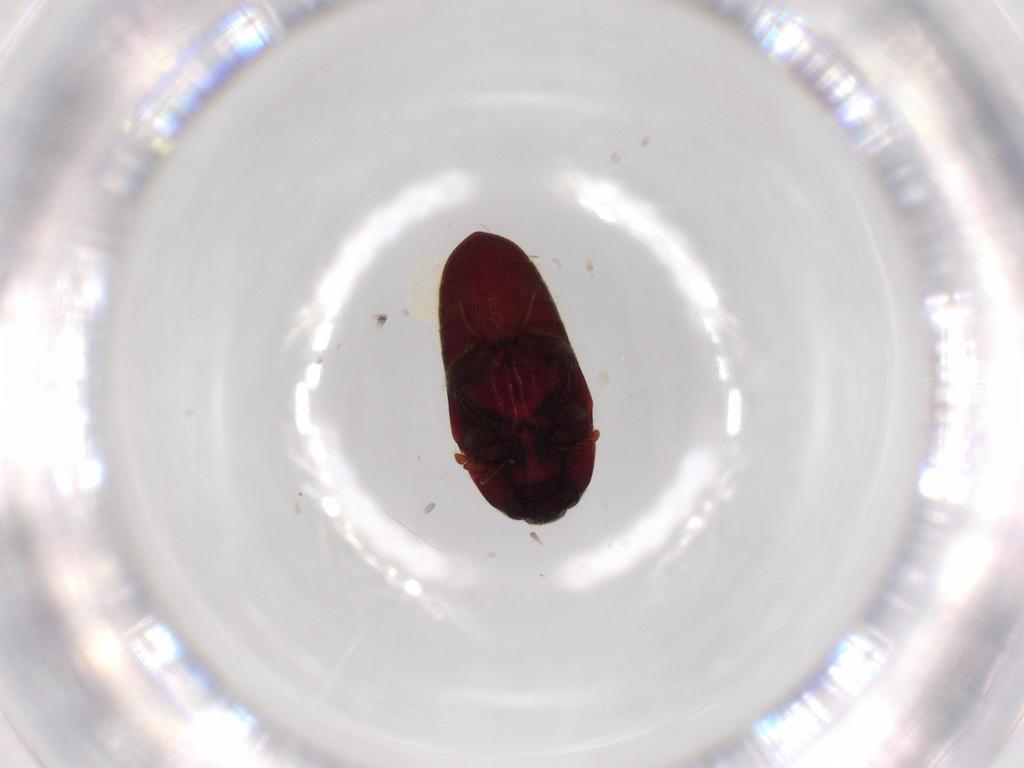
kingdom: Animalia
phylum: Arthropoda
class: Insecta
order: Coleoptera
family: Throscidae
